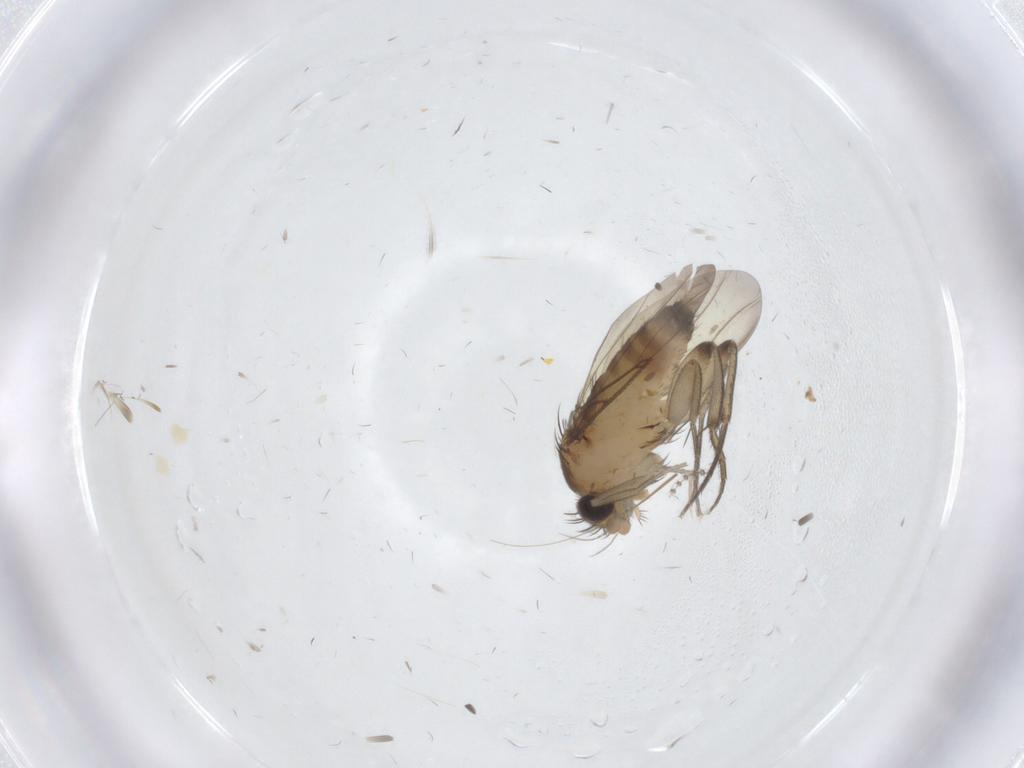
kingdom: Animalia
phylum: Arthropoda
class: Insecta
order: Diptera
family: Phoridae
